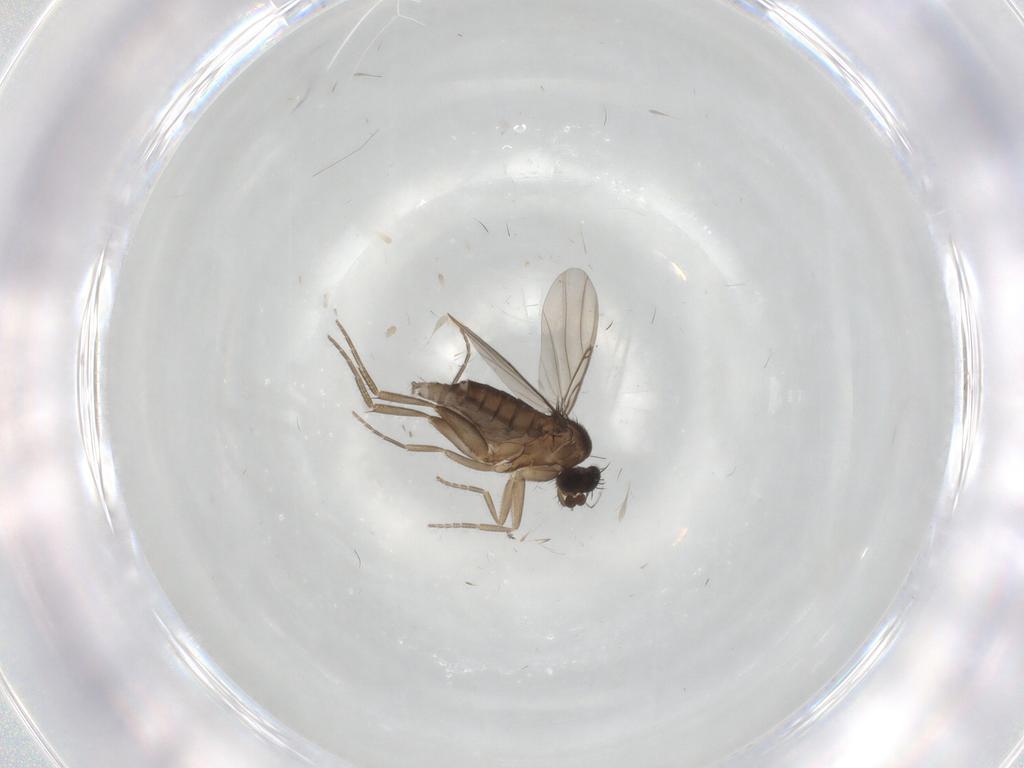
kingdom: Animalia
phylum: Arthropoda
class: Insecta
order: Diptera
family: Phoridae
